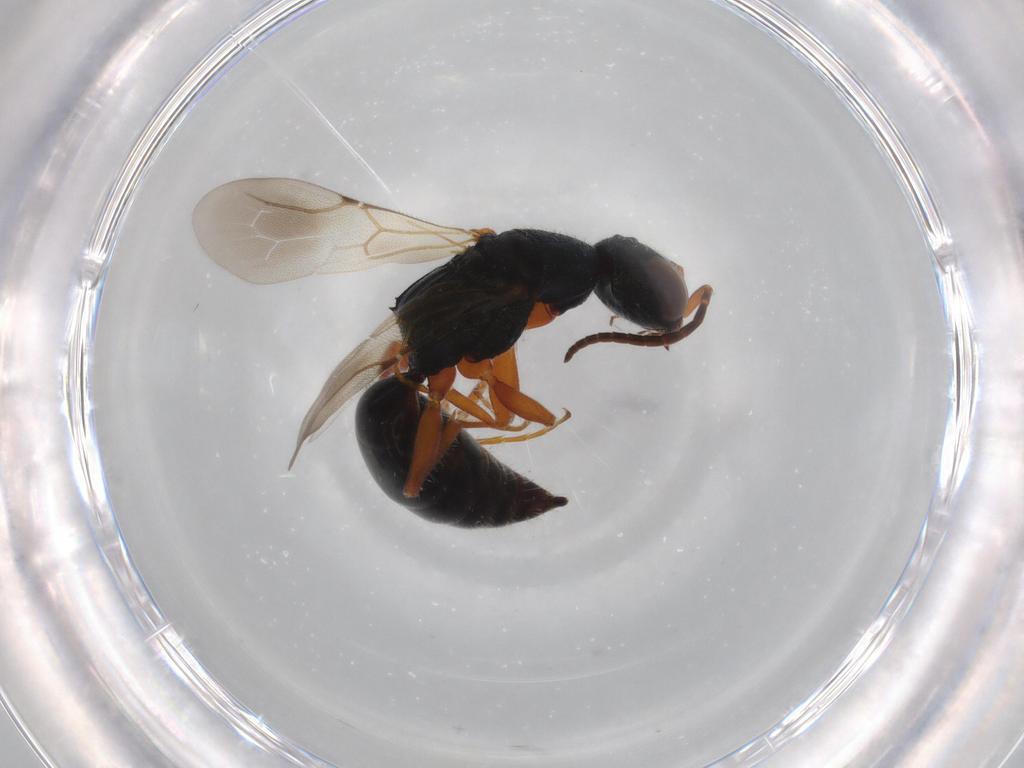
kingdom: Animalia
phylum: Arthropoda
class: Insecta
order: Hymenoptera
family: Bethylidae
